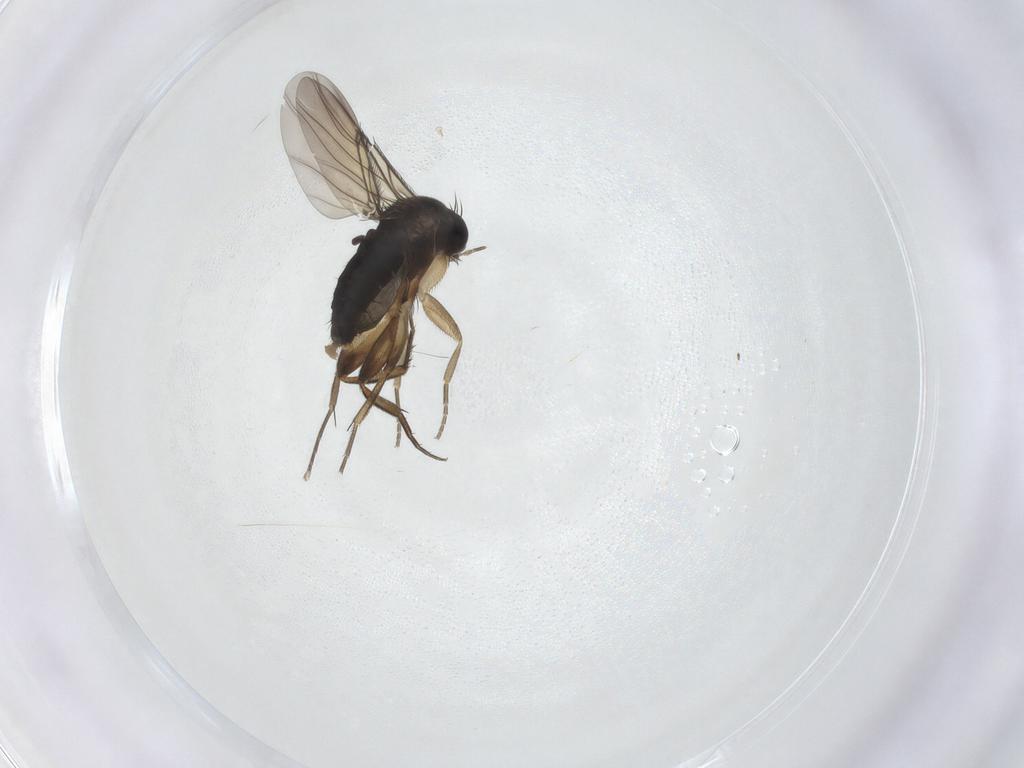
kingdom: Animalia
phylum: Arthropoda
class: Insecta
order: Diptera
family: Phoridae
